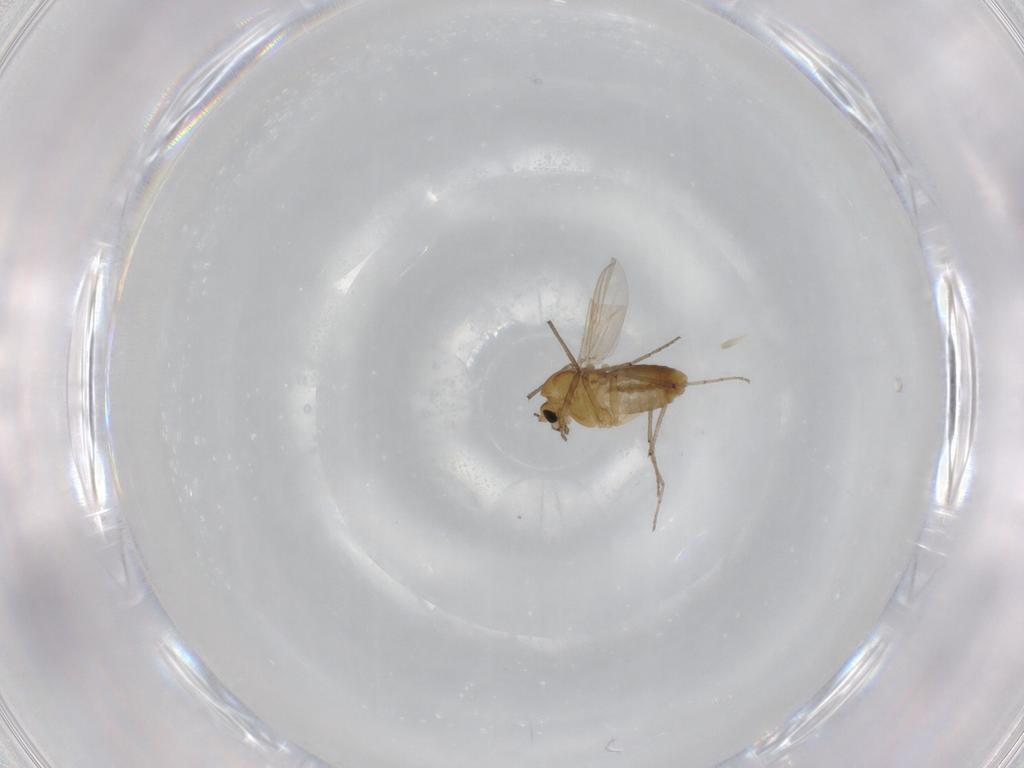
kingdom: Animalia
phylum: Arthropoda
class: Insecta
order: Diptera
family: Chironomidae
